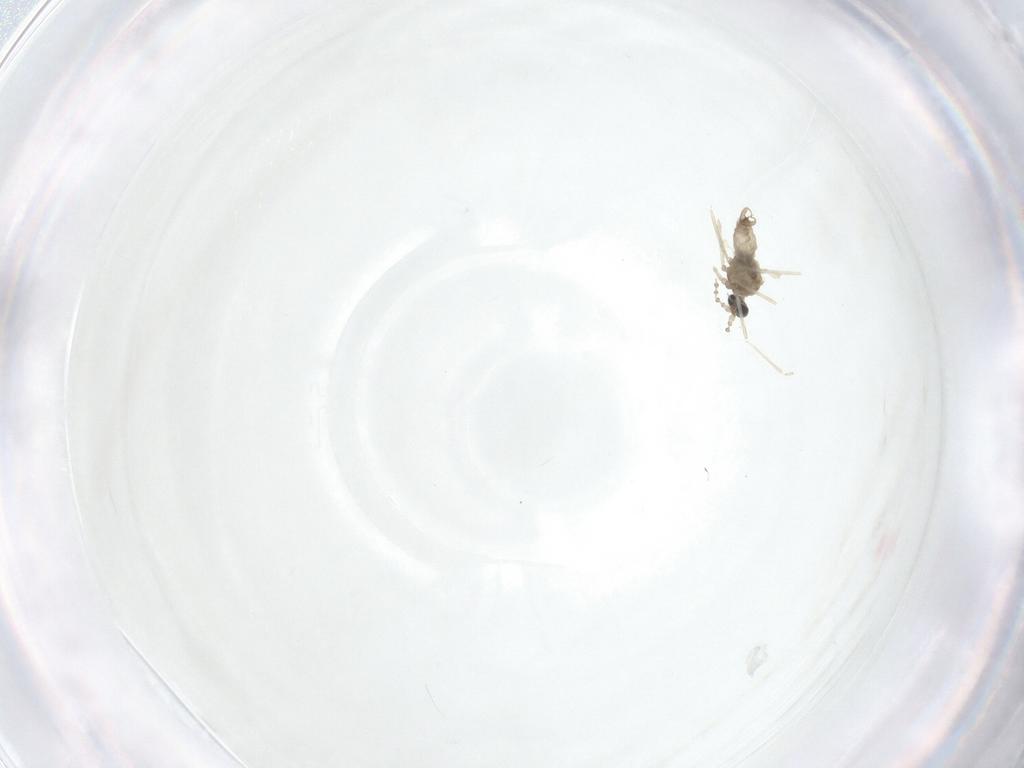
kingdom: Animalia
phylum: Arthropoda
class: Insecta
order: Diptera
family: Cecidomyiidae
